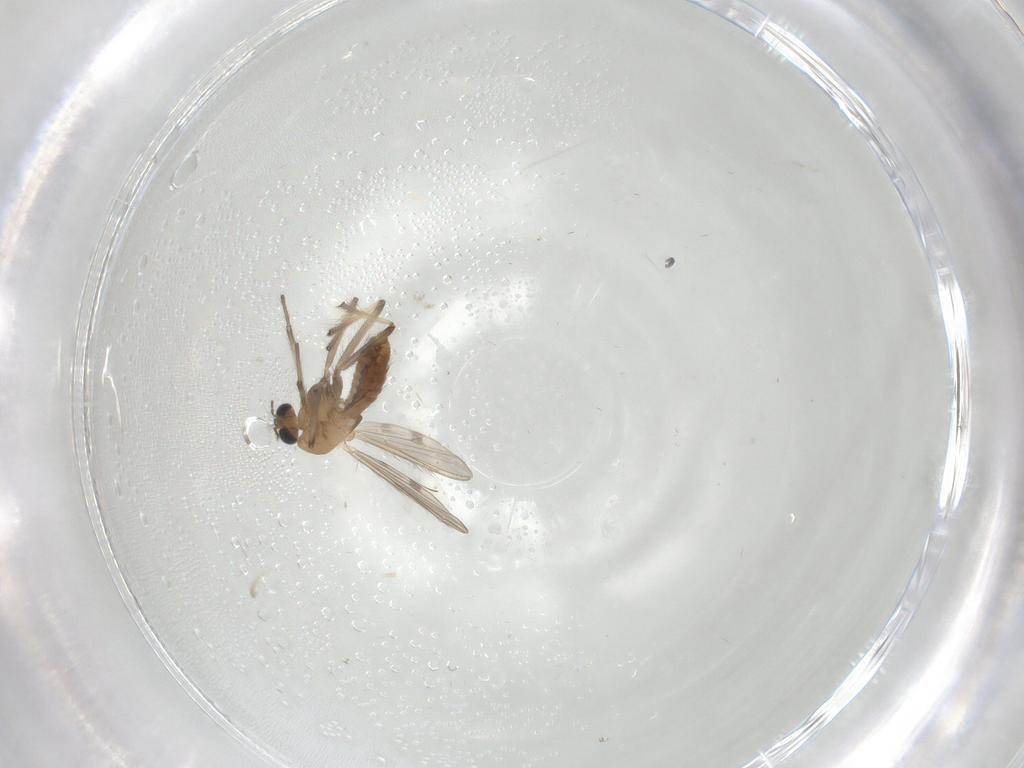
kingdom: Animalia
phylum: Arthropoda
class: Insecta
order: Diptera
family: Chironomidae
